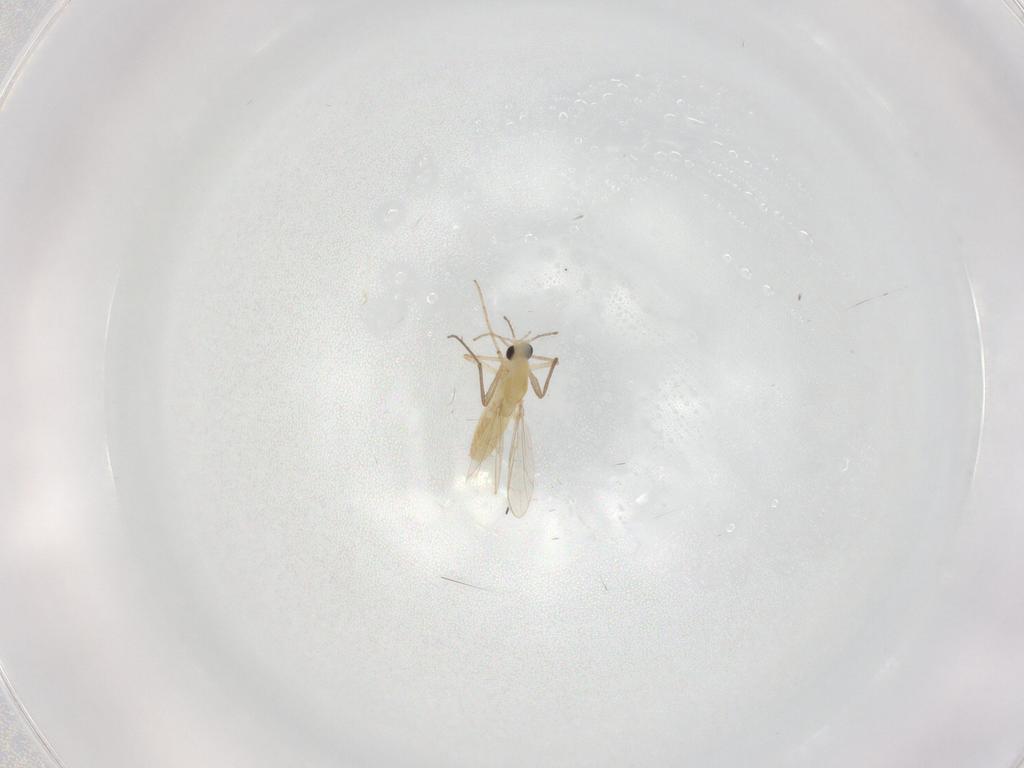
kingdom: Animalia
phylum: Arthropoda
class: Insecta
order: Diptera
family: Chironomidae
